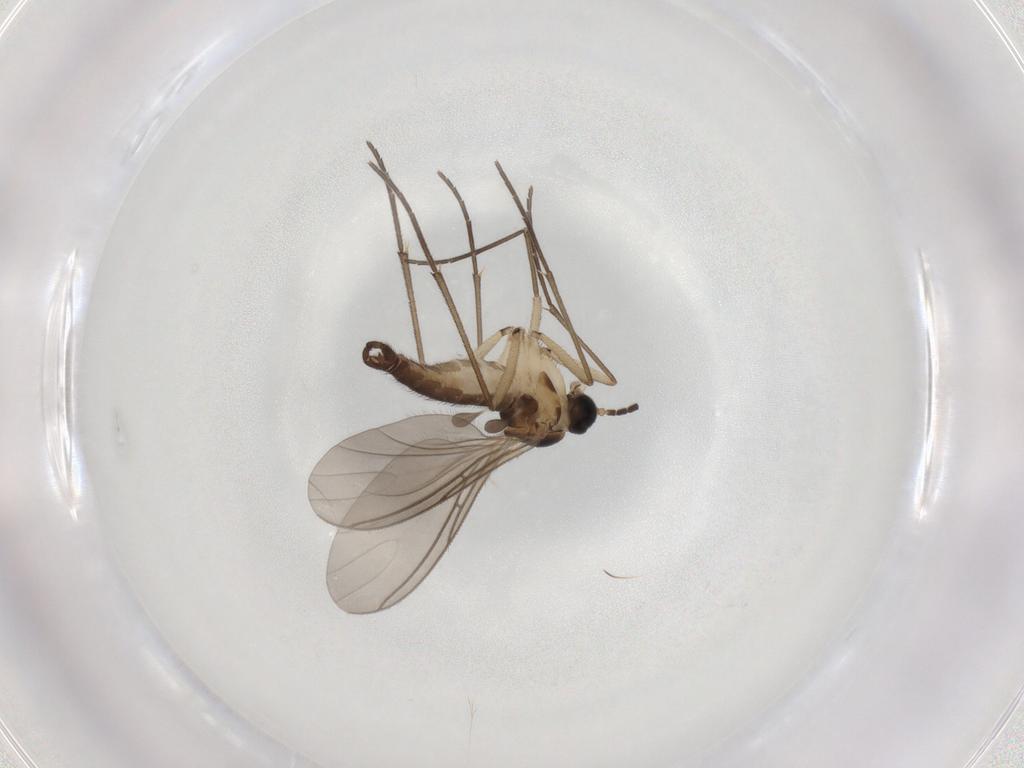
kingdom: Animalia
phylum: Arthropoda
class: Insecta
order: Diptera
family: Sciaridae
